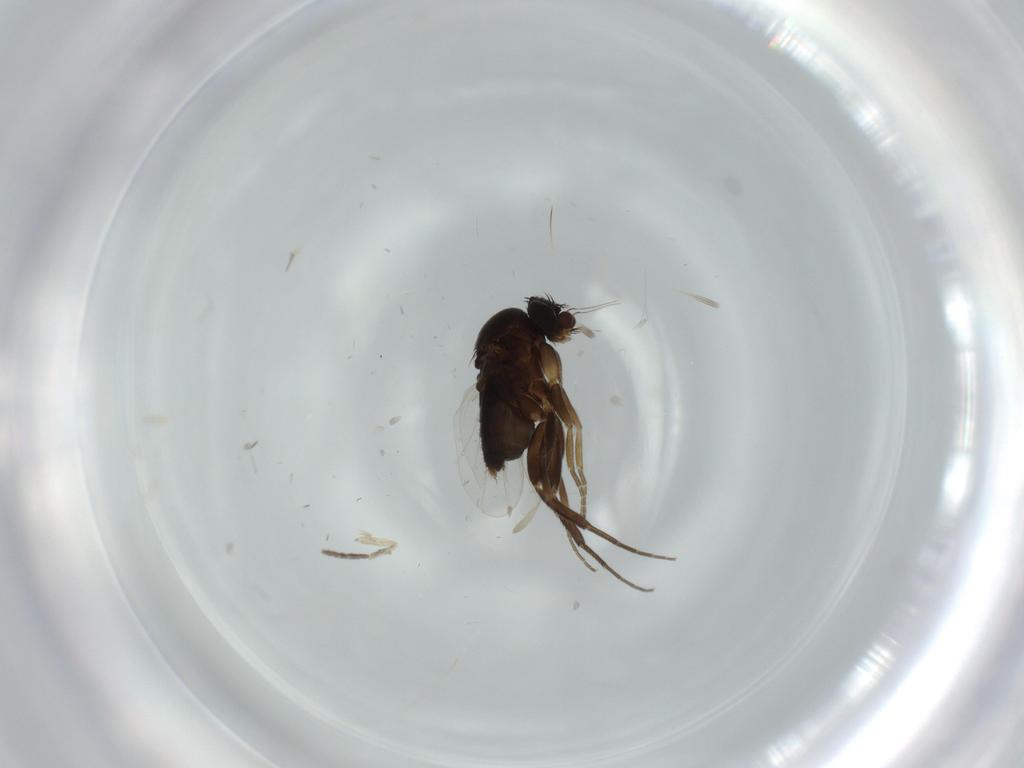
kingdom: Animalia
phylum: Arthropoda
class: Insecta
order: Diptera
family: Phoridae
